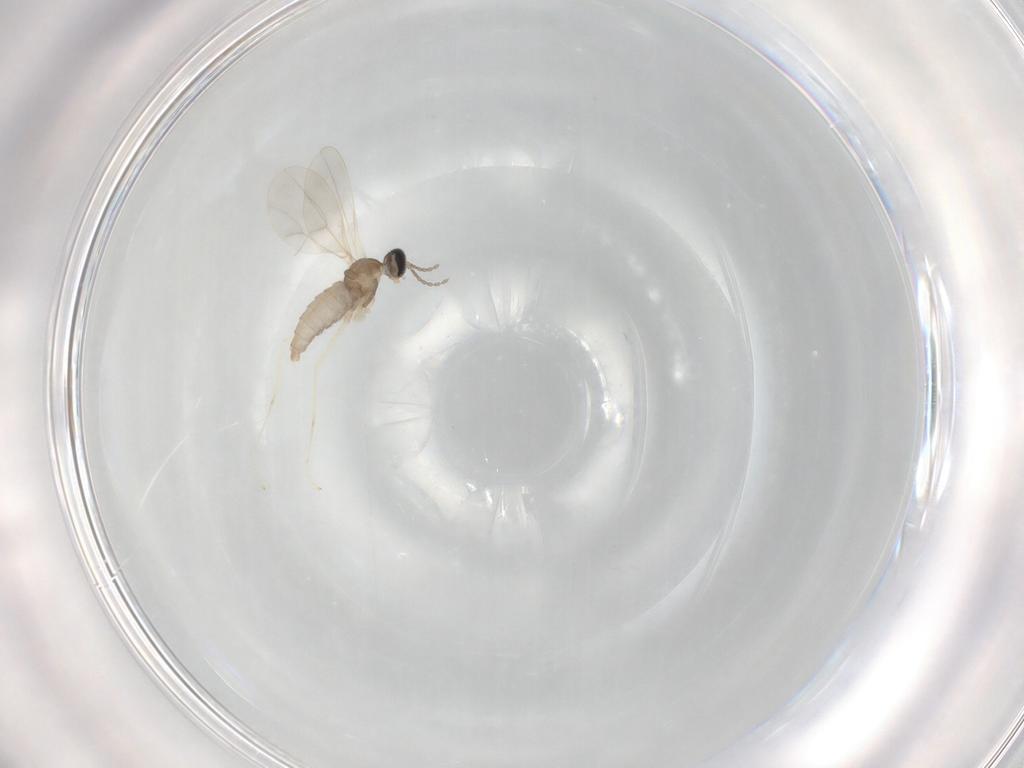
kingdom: Animalia
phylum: Arthropoda
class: Insecta
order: Diptera
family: Cecidomyiidae
